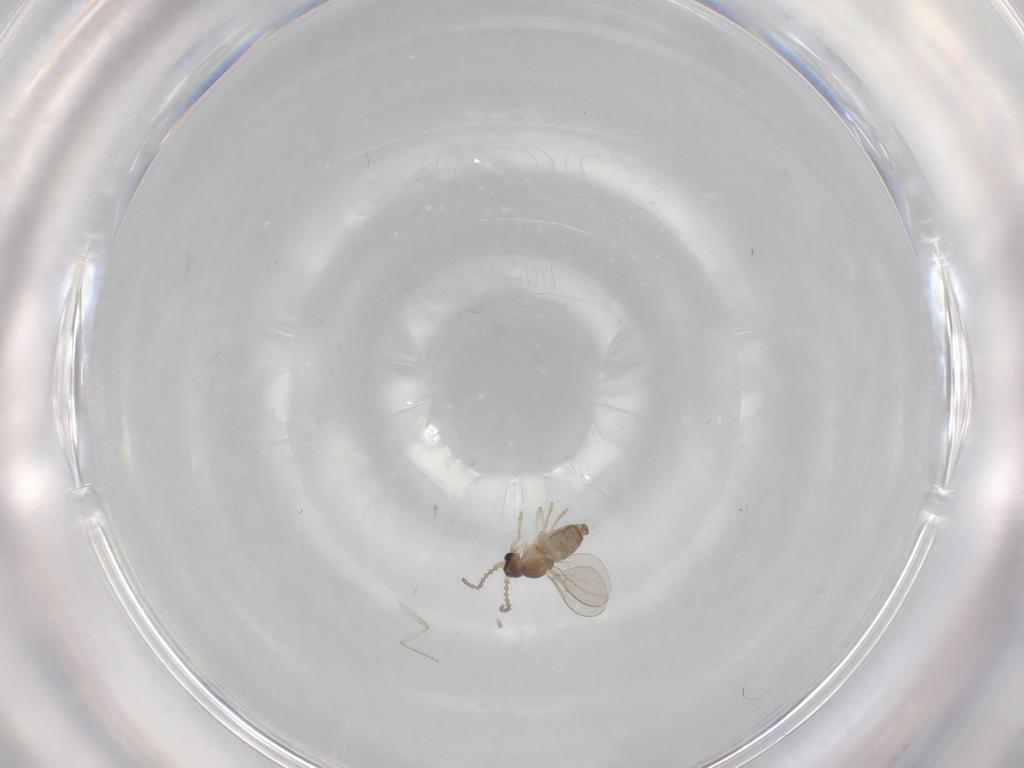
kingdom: Animalia
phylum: Arthropoda
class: Insecta
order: Diptera
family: Cecidomyiidae
